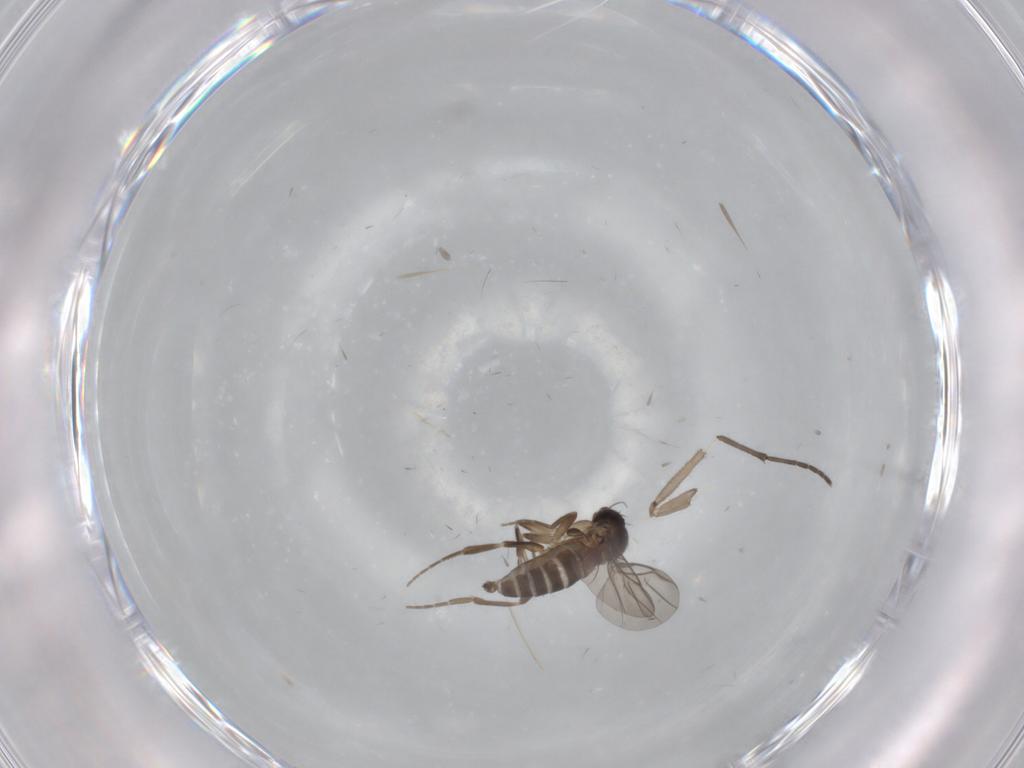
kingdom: Animalia
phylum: Arthropoda
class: Insecta
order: Diptera
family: Sciaridae
